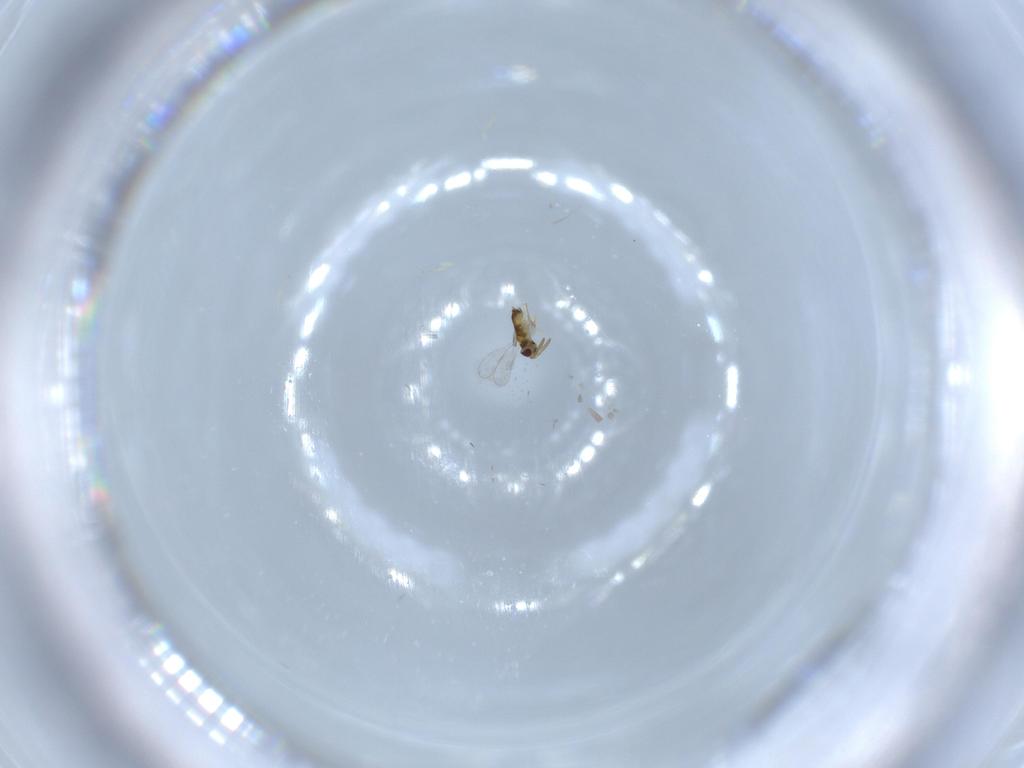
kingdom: Animalia
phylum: Arthropoda
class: Insecta
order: Hymenoptera
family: Aphelinidae
